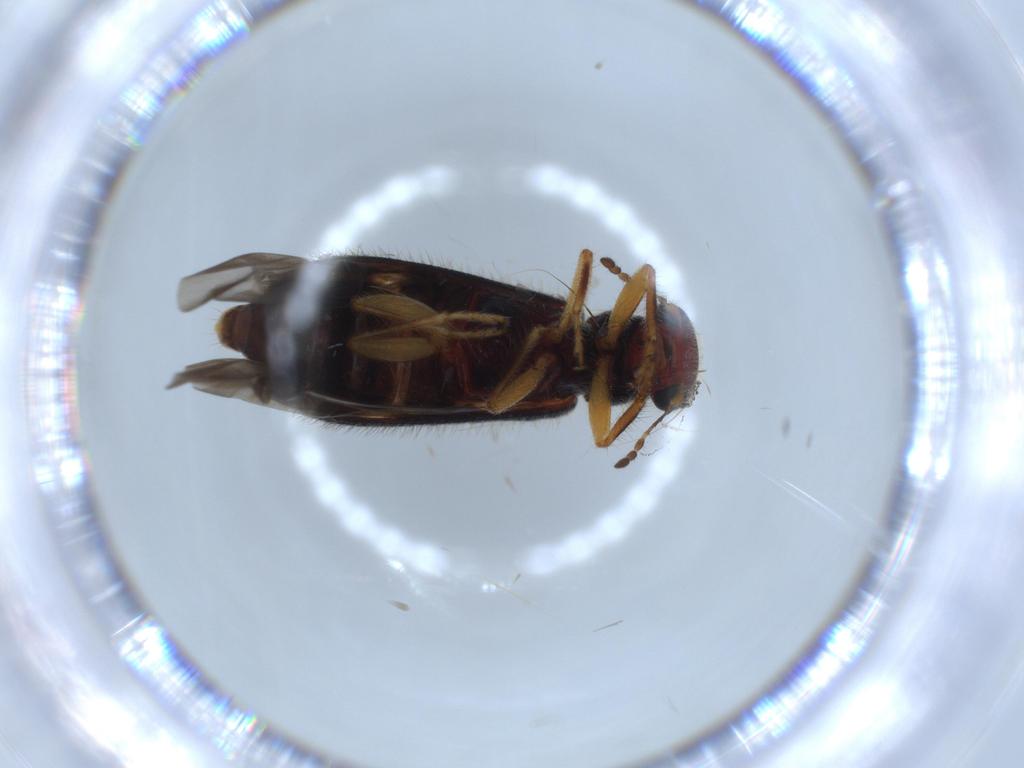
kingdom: Animalia
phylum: Arthropoda
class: Insecta
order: Coleoptera
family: Cleridae
